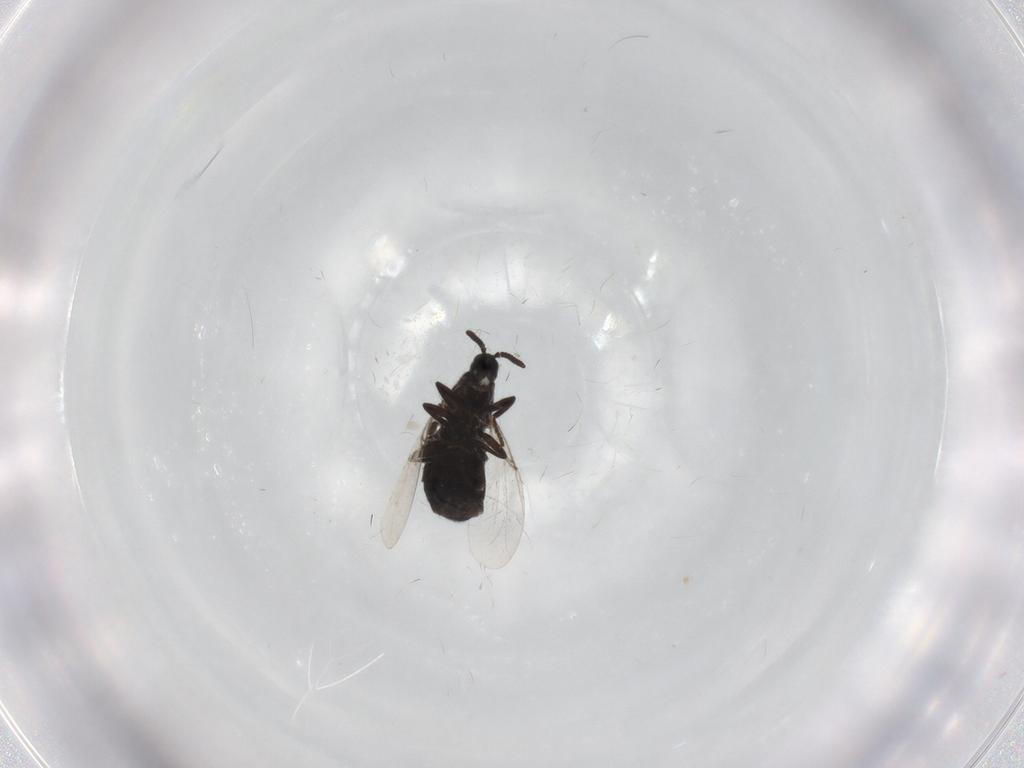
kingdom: Animalia
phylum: Arthropoda
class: Insecta
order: Diptera
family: Scatopsidae
